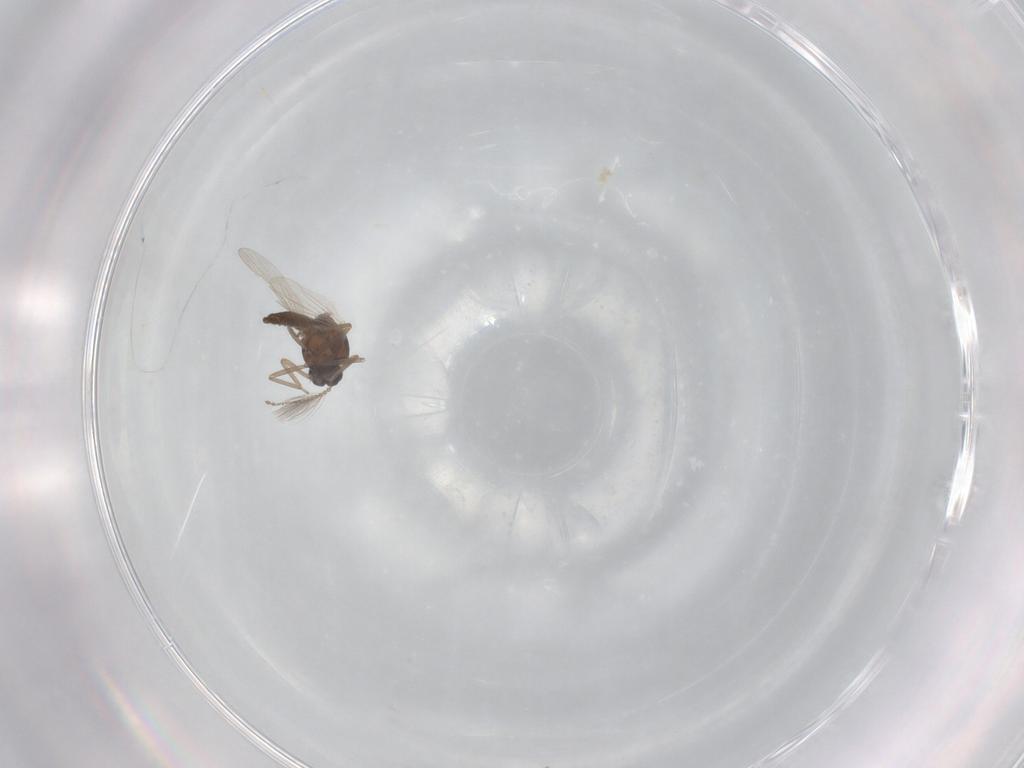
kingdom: Animalia
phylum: Arthropoda
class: Insecta
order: Diptera
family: Ceratopogonidae
